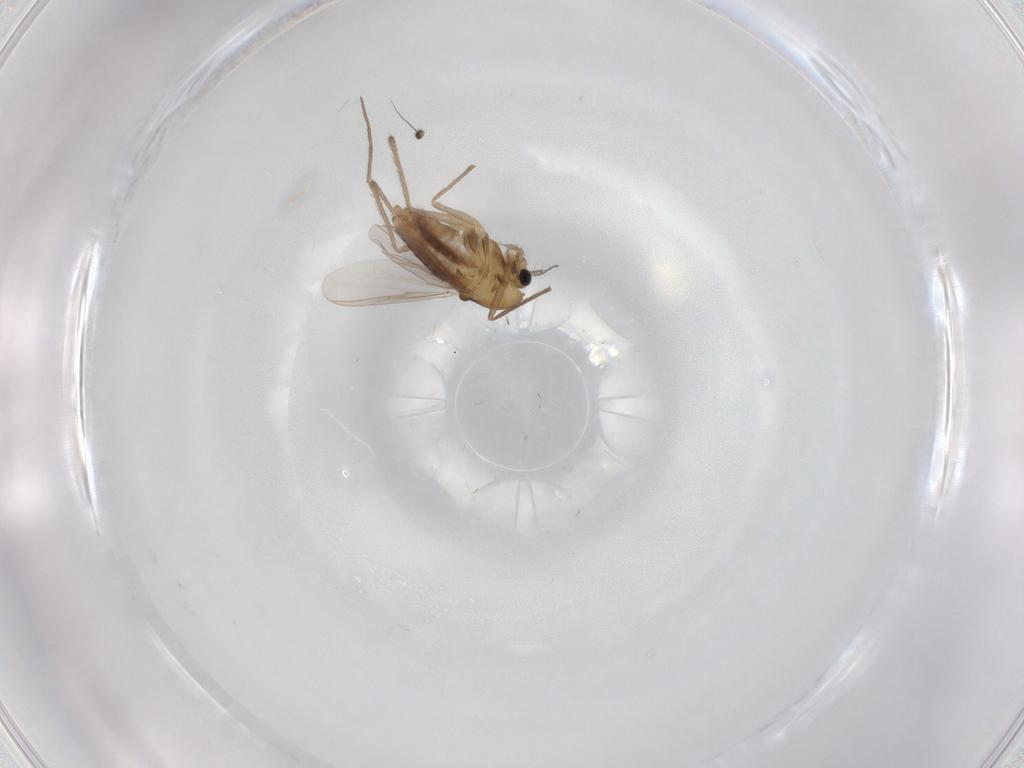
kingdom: Animalia
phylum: Arthropoda
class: Insecta
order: Diptera
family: Chironomidae
